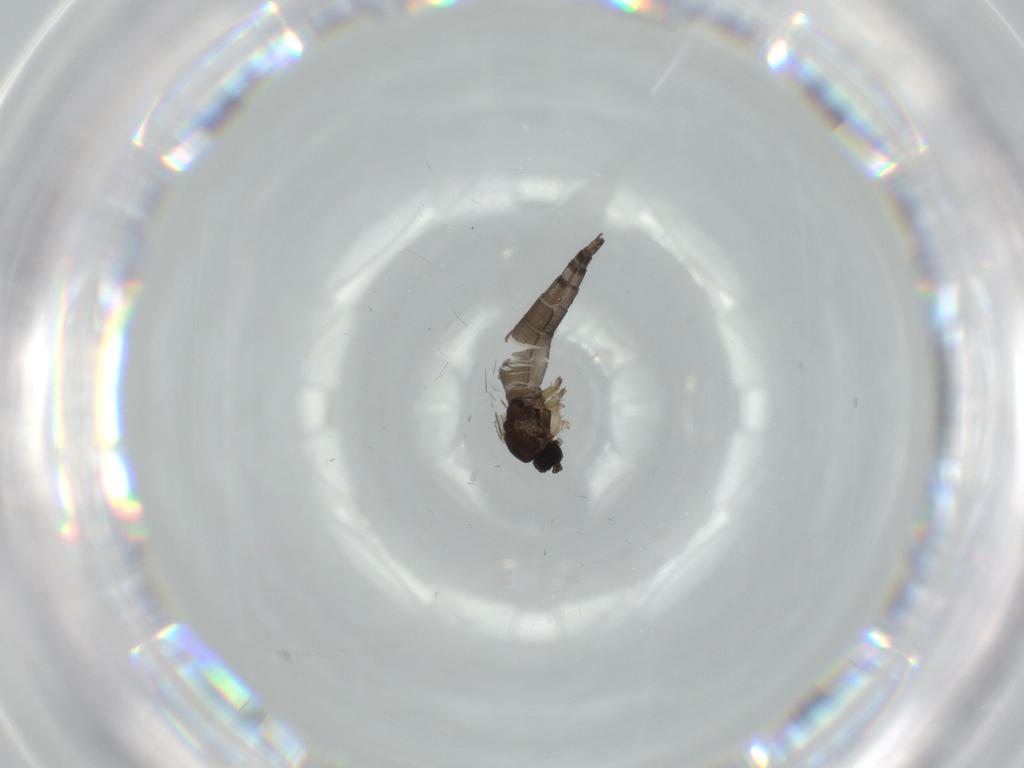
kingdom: Animalia
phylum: Arthropoda
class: Insecta
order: Diptera
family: Sciaridae
